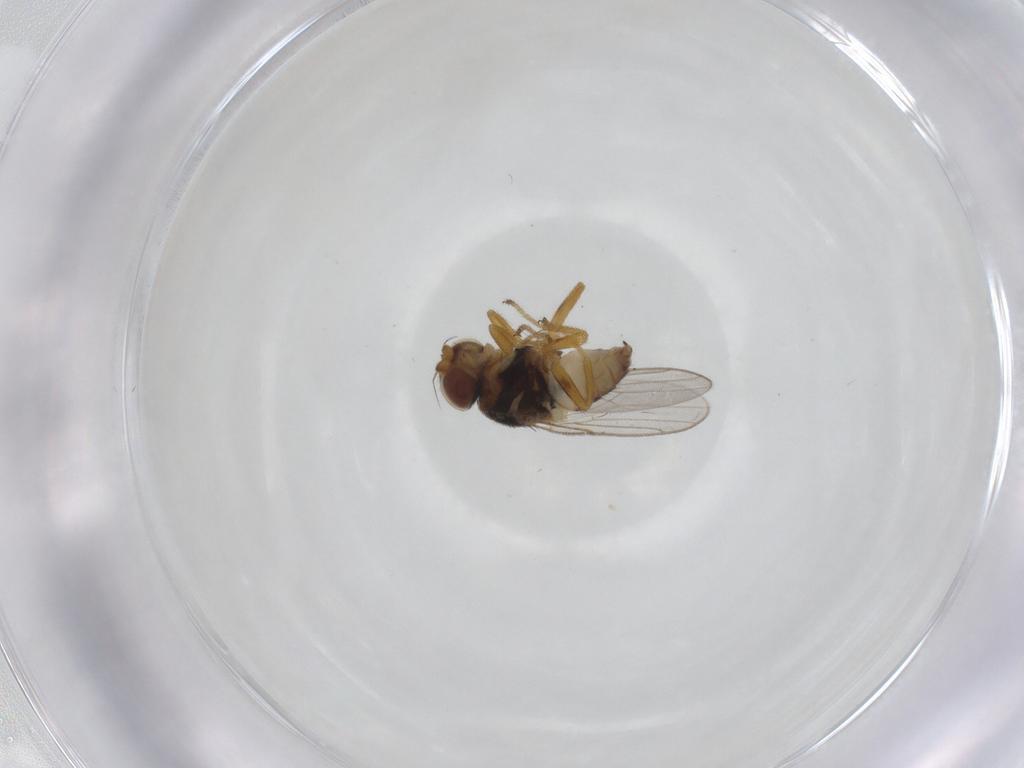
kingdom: Animalia
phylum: Arthropoda
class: Insecta
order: Diptera
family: Chloropidae
